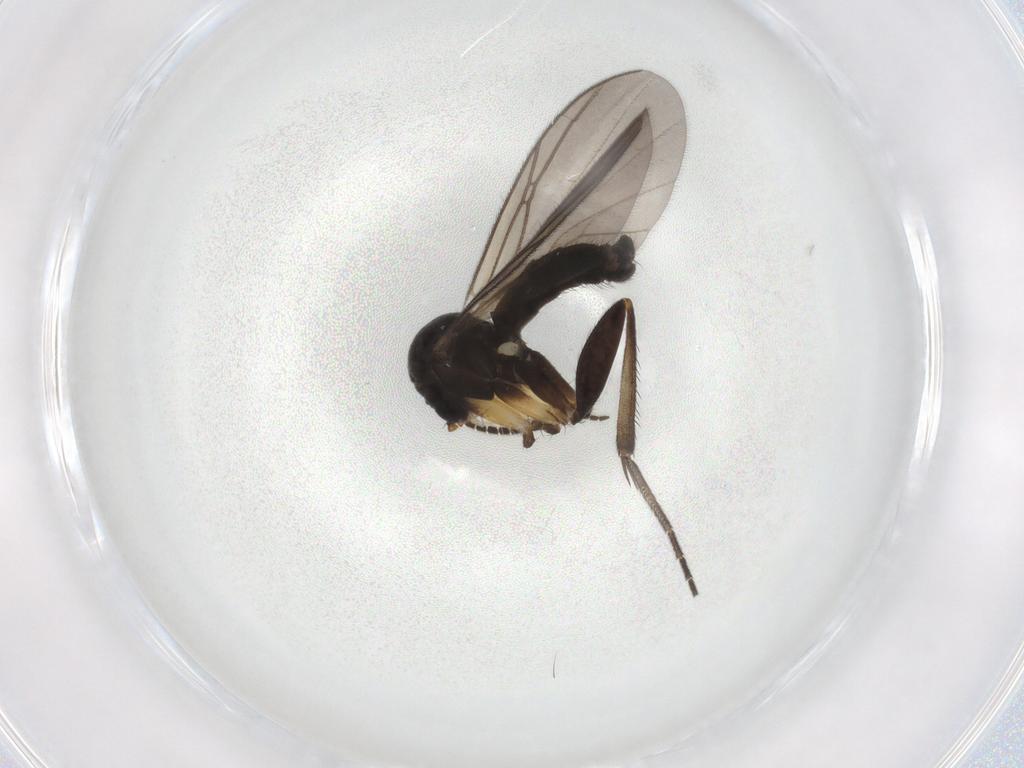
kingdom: Animalia
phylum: Arthropoda
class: Insecta
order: Diptera
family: Mycetophilidae
